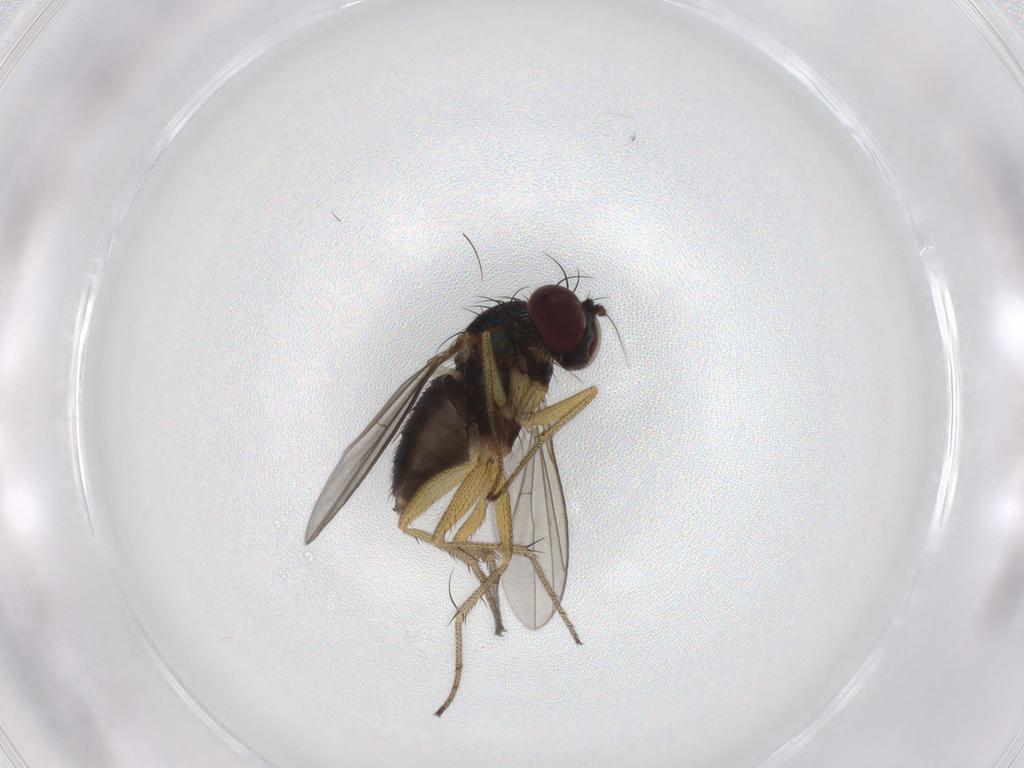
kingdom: Animalia
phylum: Arthropoda
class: Insecta
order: Diptera
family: Dolichopodidae
